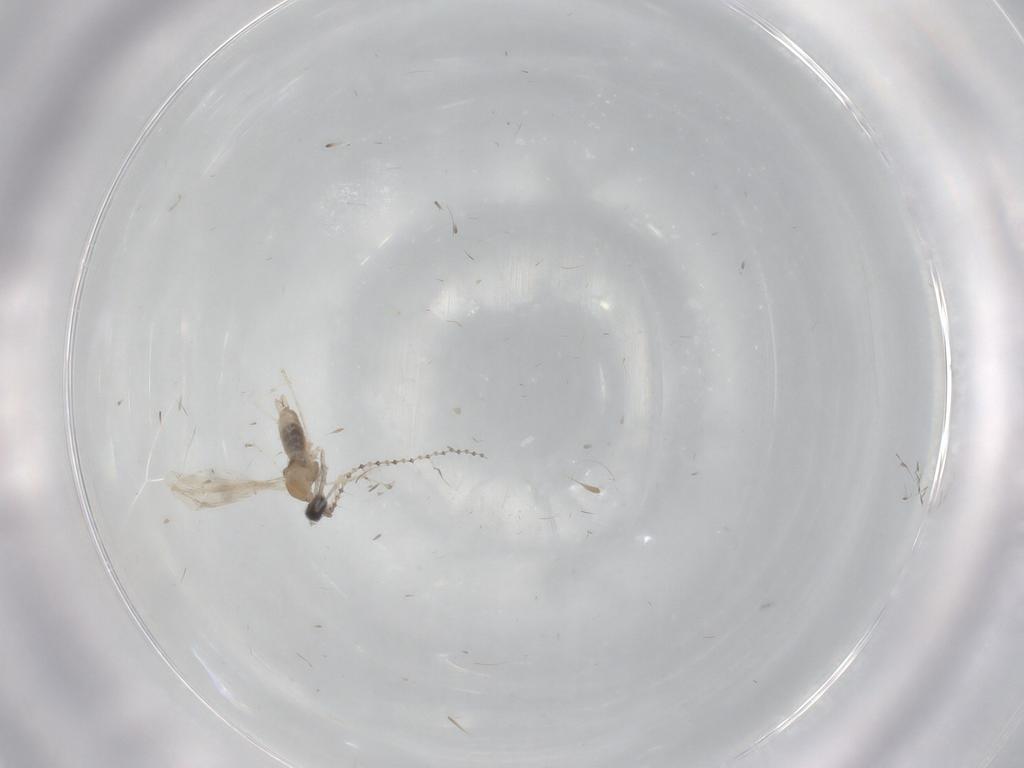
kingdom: Animalia
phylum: Arthropoda
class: Insecta
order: Diptera
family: Cecidomyiidae
